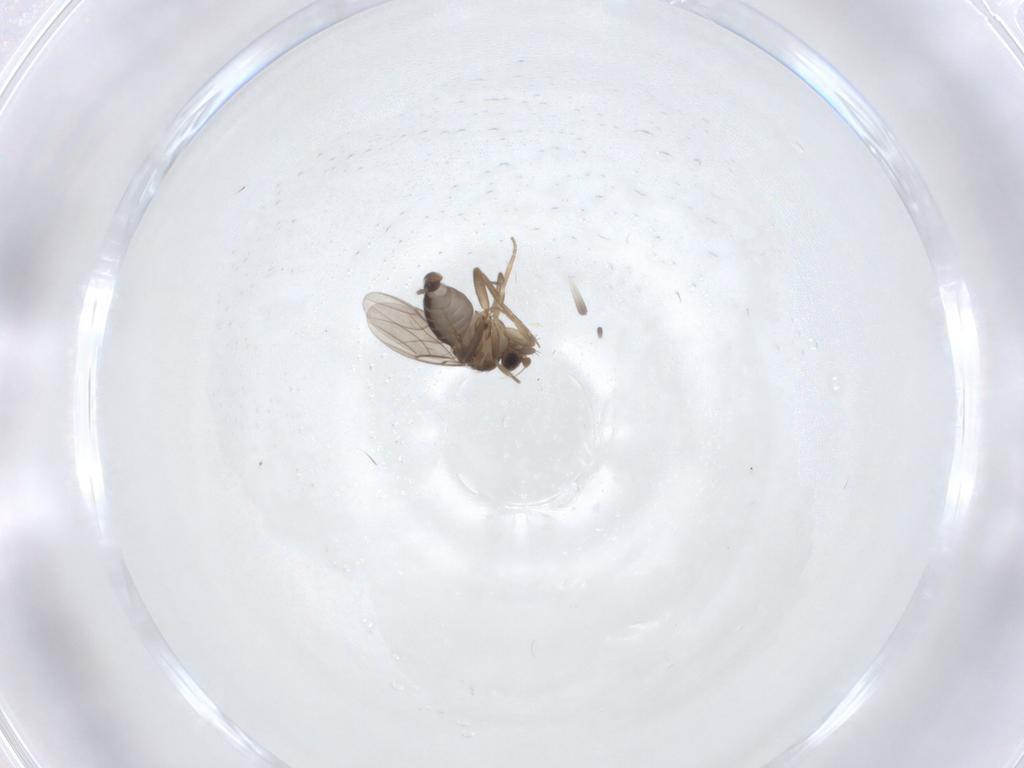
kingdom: Animalia
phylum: Arthropoda
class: Insecta
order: Diptera
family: Phoridae
